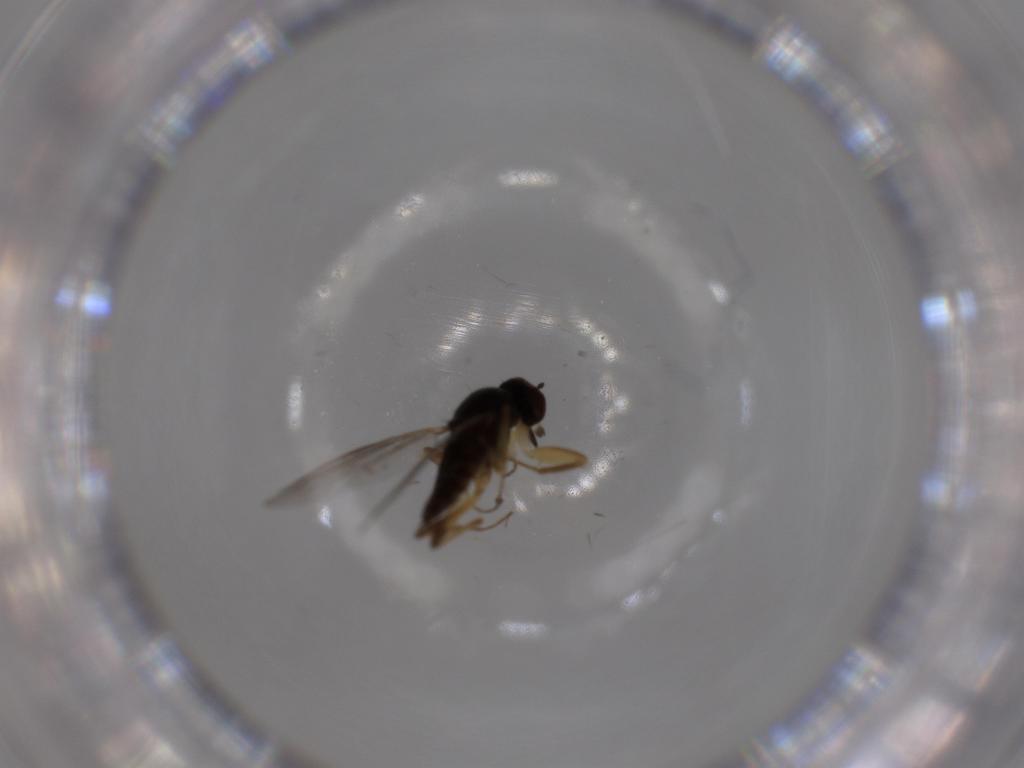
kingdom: Animalia
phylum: Arthropoda
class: Insecta
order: Diptera
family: Hybotidae
